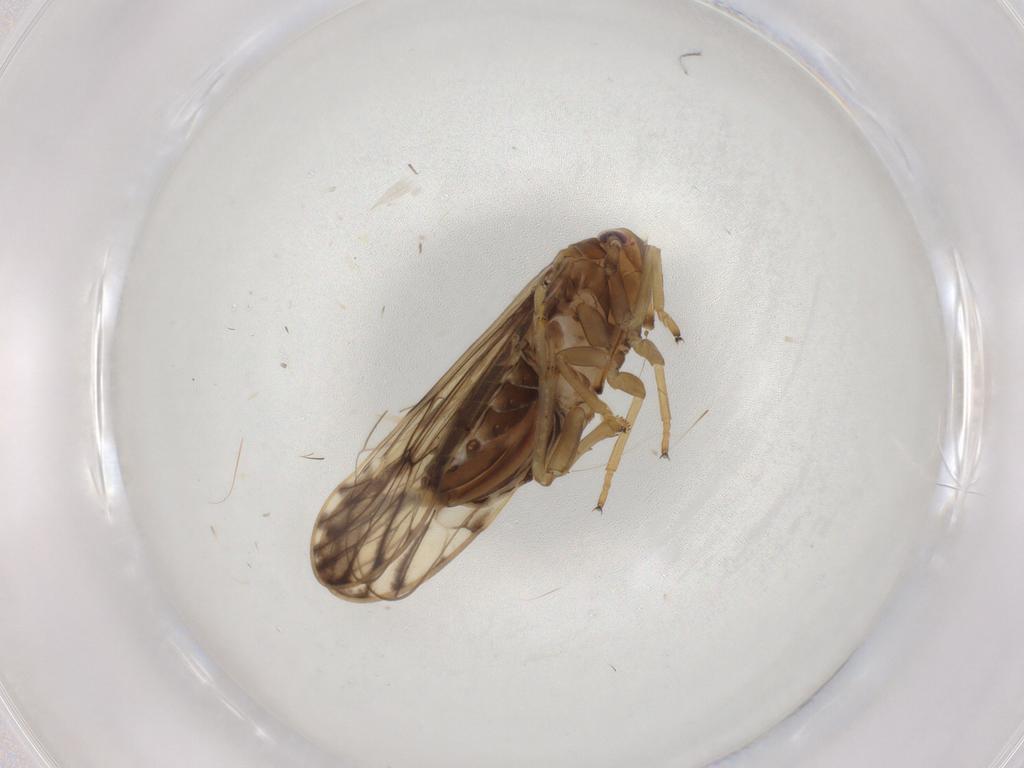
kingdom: Animalia
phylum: Arthropoda
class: Insecta
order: Hemiptera
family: Delphacidae
